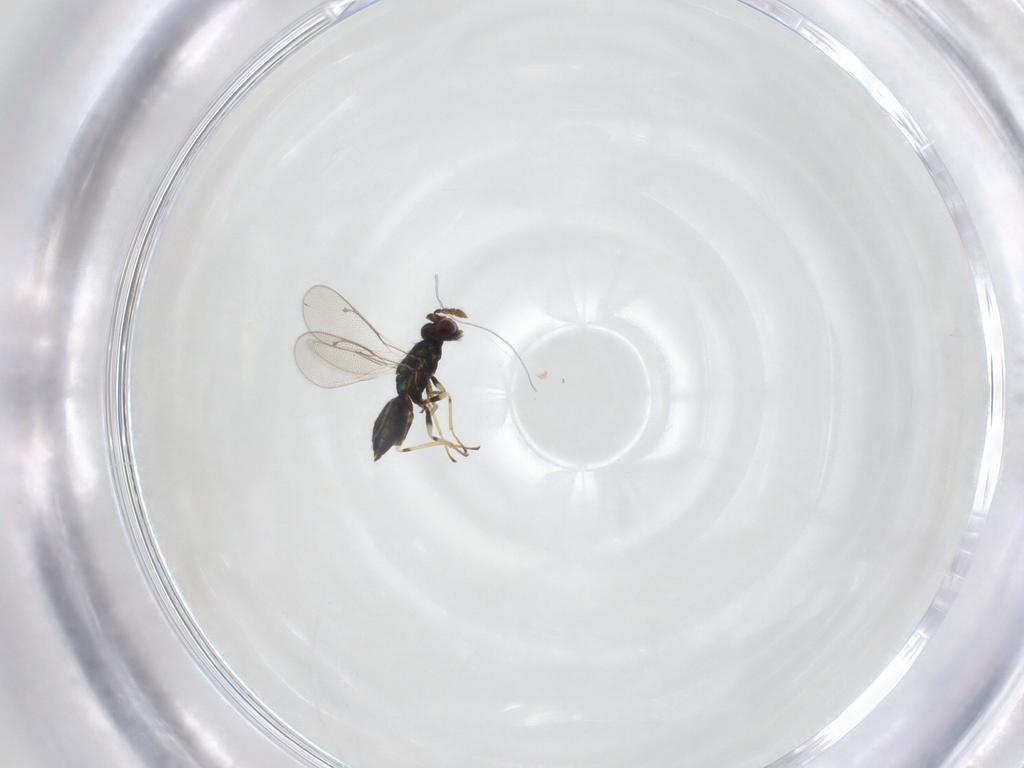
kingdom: Animalia
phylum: Arthropoda
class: Insecta
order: Hymenoptera
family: Eulophidae
